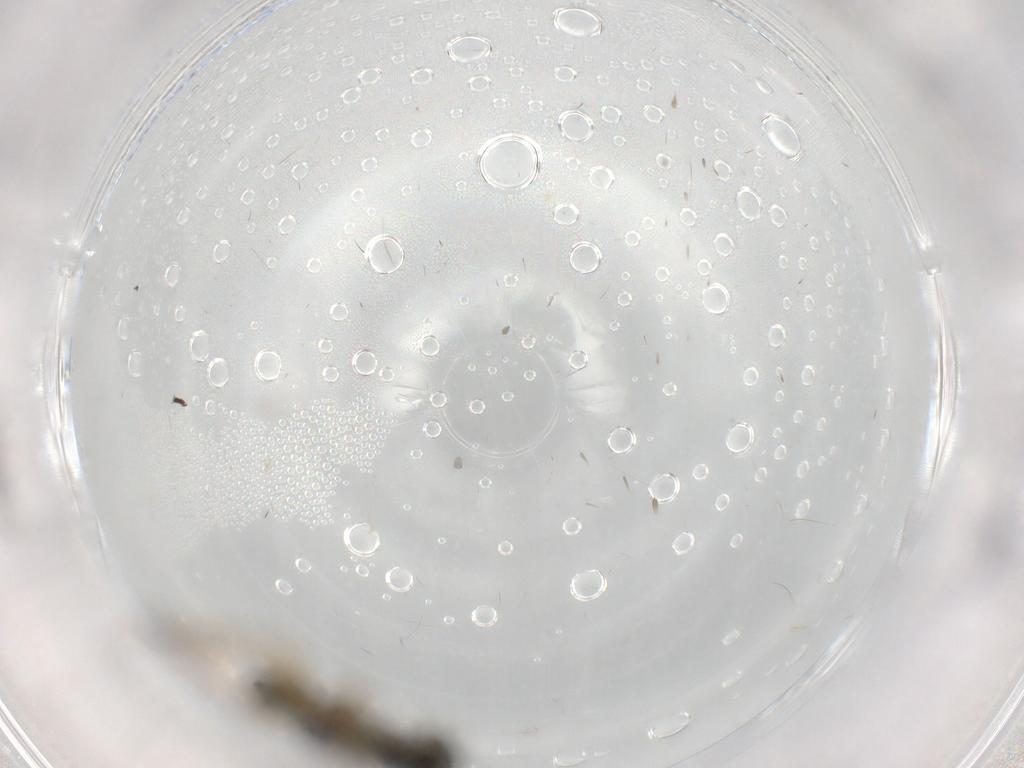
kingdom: Animalia
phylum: Arthropoda
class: Insecta
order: Diptera
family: Dolichopodidae
